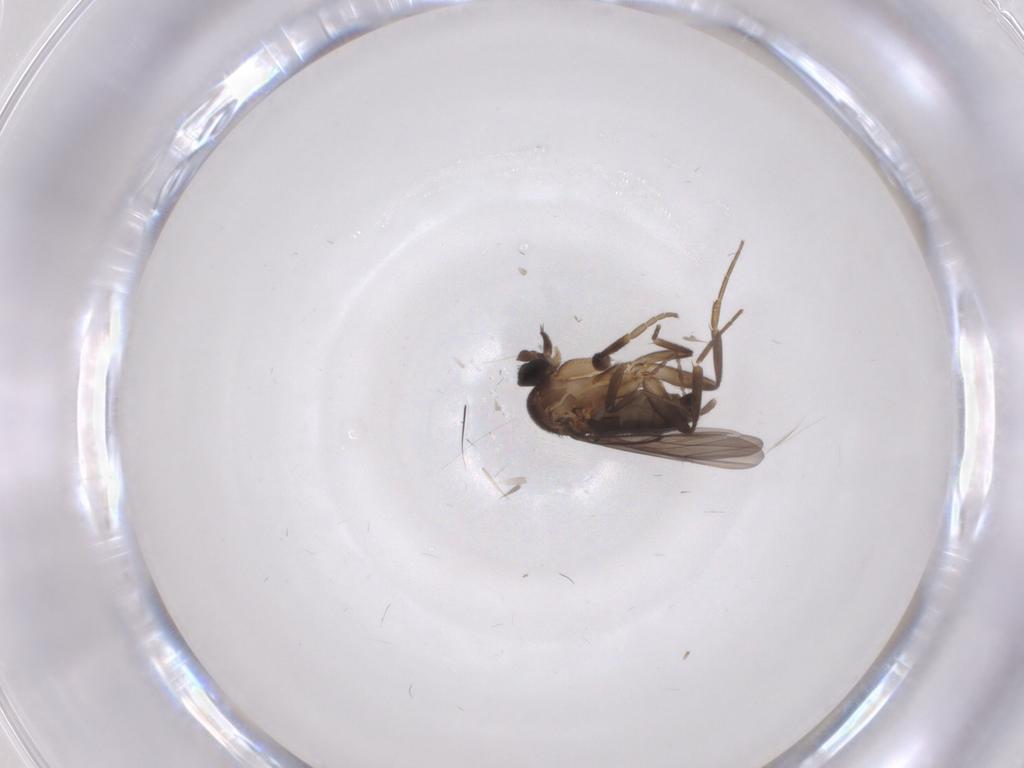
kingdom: Animalia
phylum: Arthropoda
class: Insecta
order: Diptera
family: Phoridae
